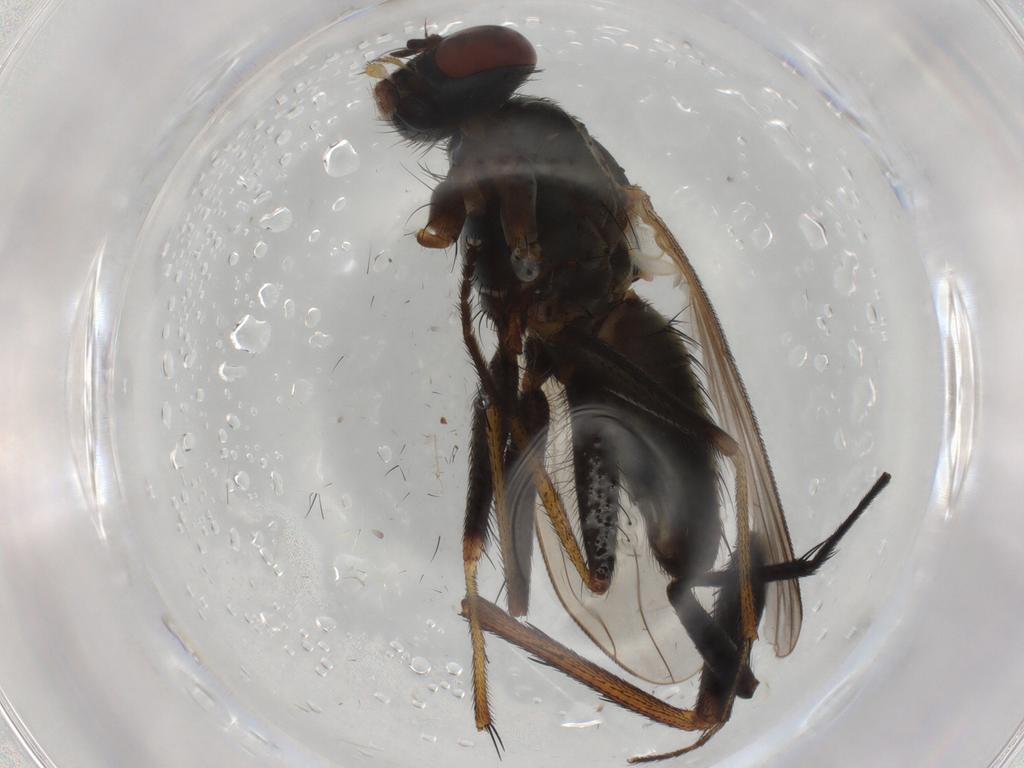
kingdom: Animalia
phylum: Arthropoda
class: Insecta
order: Diptera
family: Muscidae
